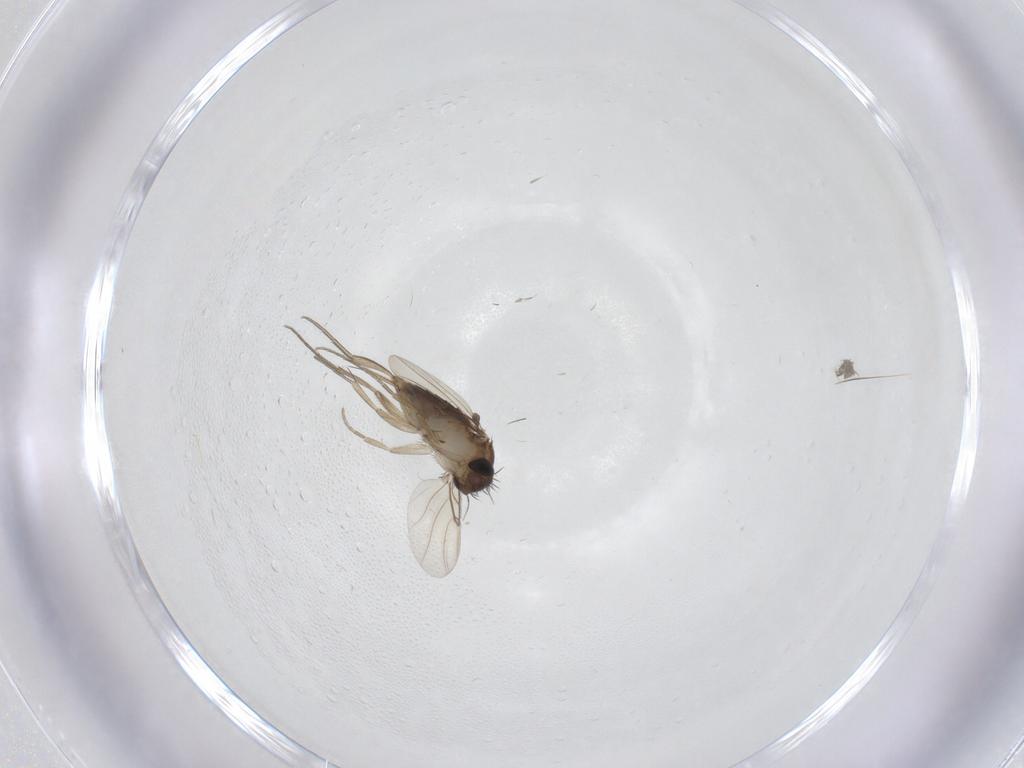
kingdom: Animalia
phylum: Arthropoda
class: Insecta
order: Diptera
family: Phoridae
